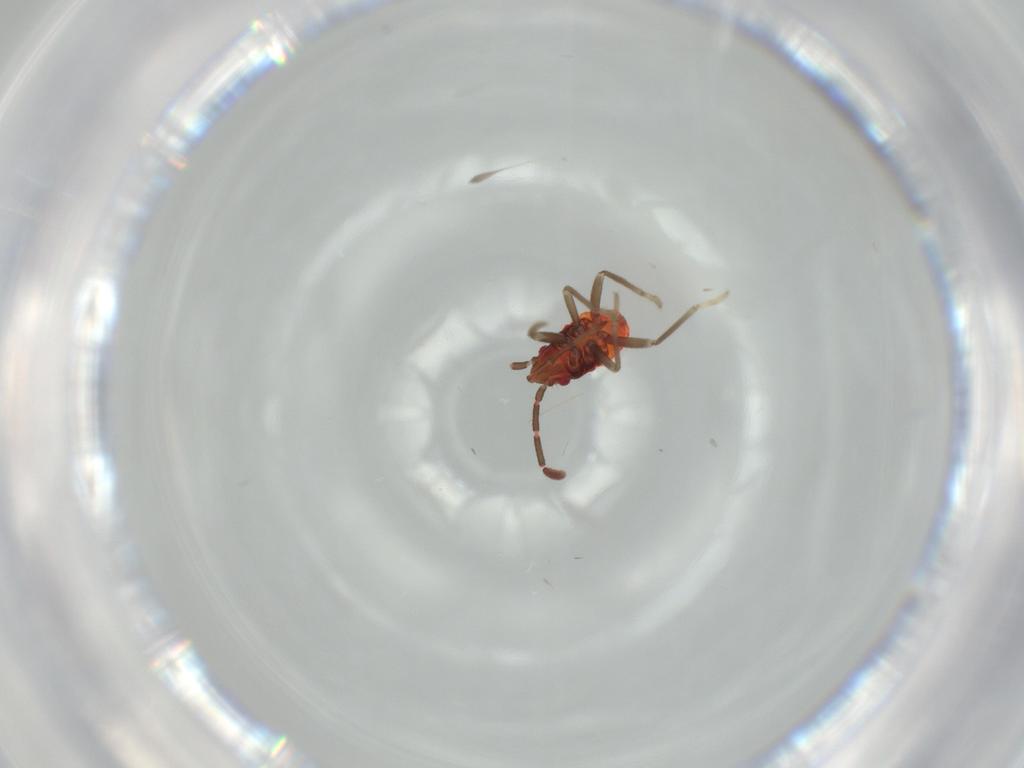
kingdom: Animalia
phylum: Arthropoda
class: Insecta
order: Hemiptera
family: Rhyparochromidae
